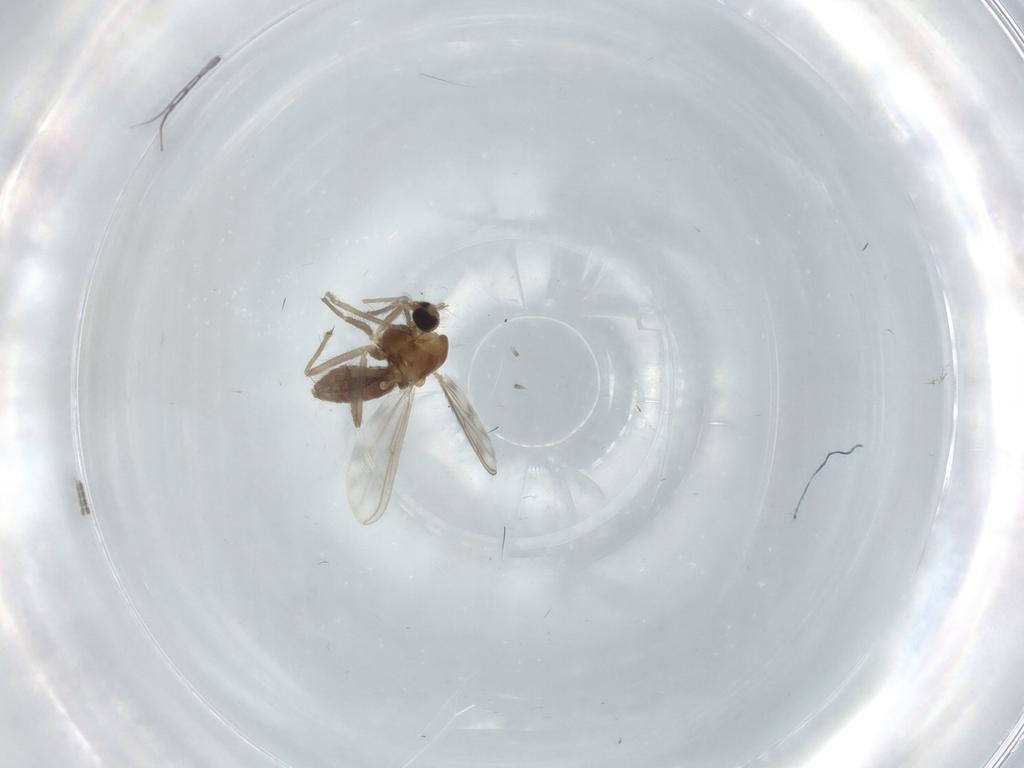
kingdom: Animalia
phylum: Arthropoda
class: Insecta
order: Diptera
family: Chironomidae
